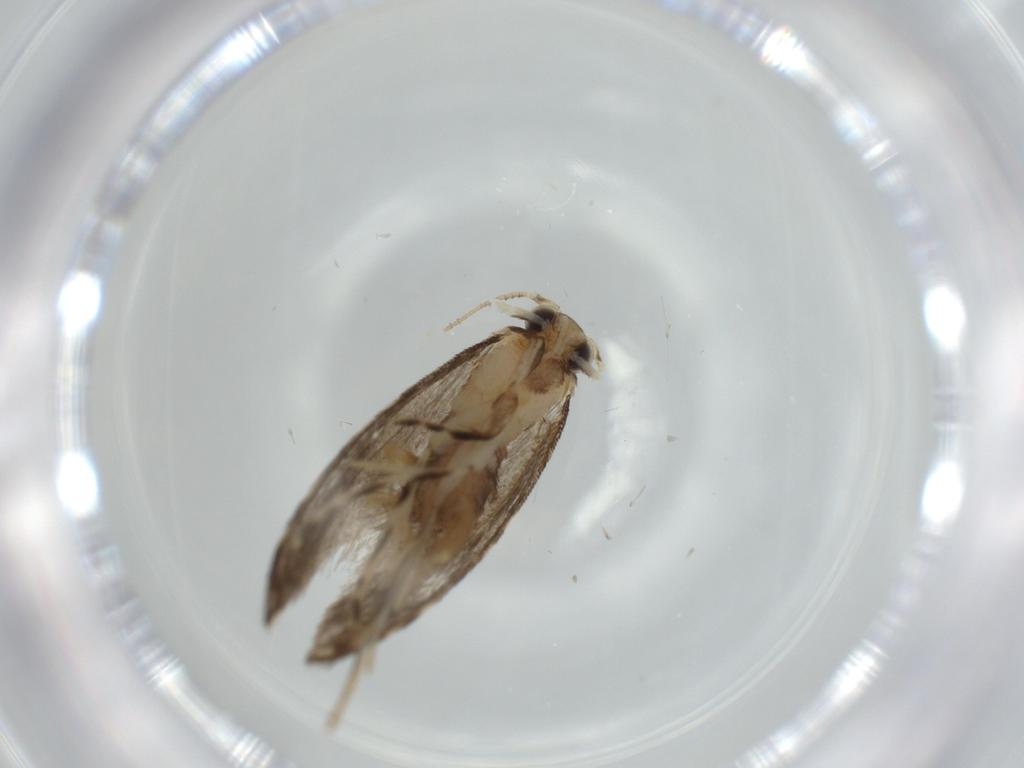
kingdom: Animalia
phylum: Arthropoda
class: Insecta
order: Lepidoptera
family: Tineidae
